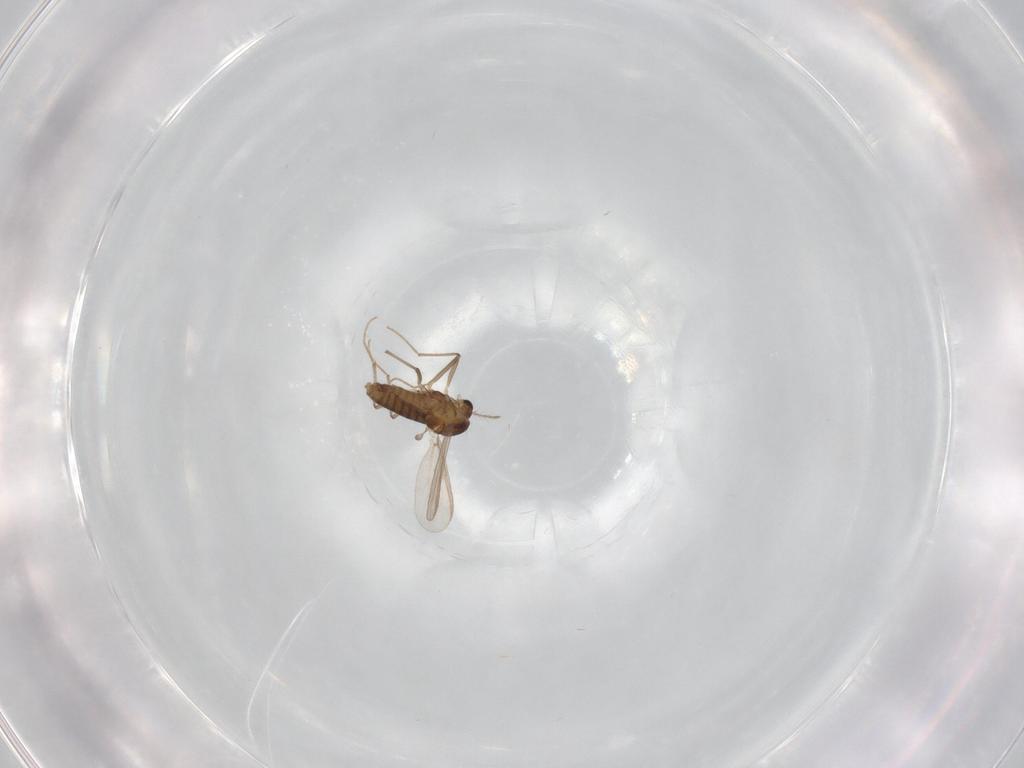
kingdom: Animalia
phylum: Arthropoda
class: Insecta
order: Diptera
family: Chironomidae
